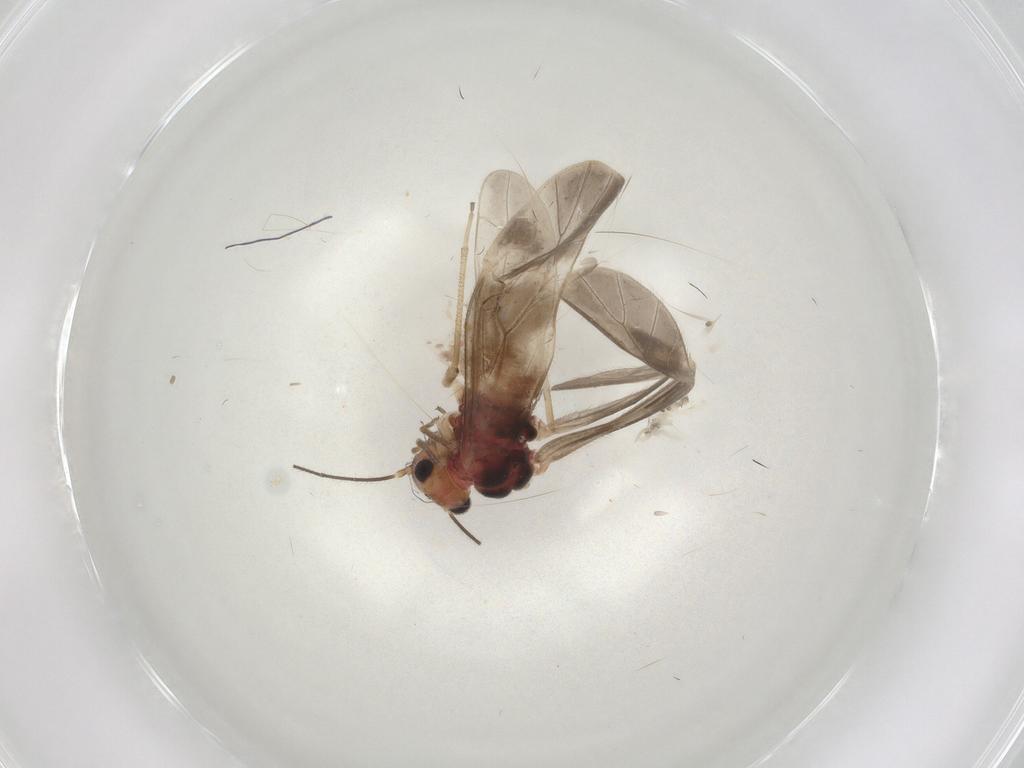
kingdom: Animalia
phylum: Arthropoda
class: Insecta
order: Psocodea
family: Caeciliusidae
